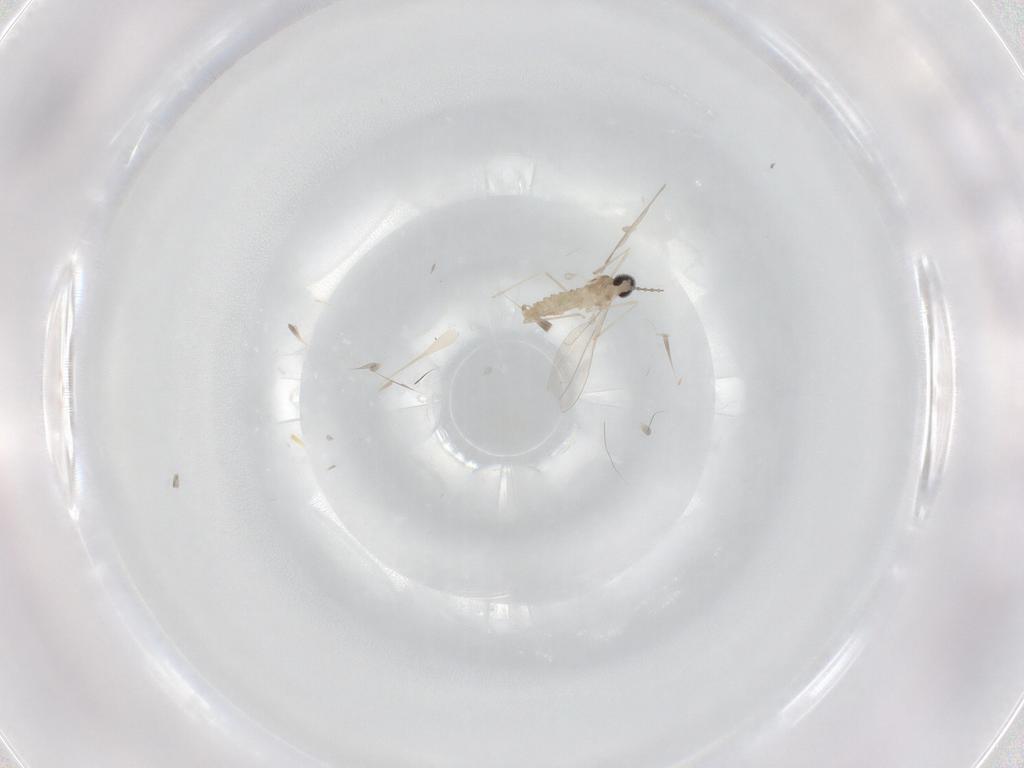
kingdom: Animalia
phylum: Arthropoda
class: Insecta
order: Diptera
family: Cecidomyiidae
